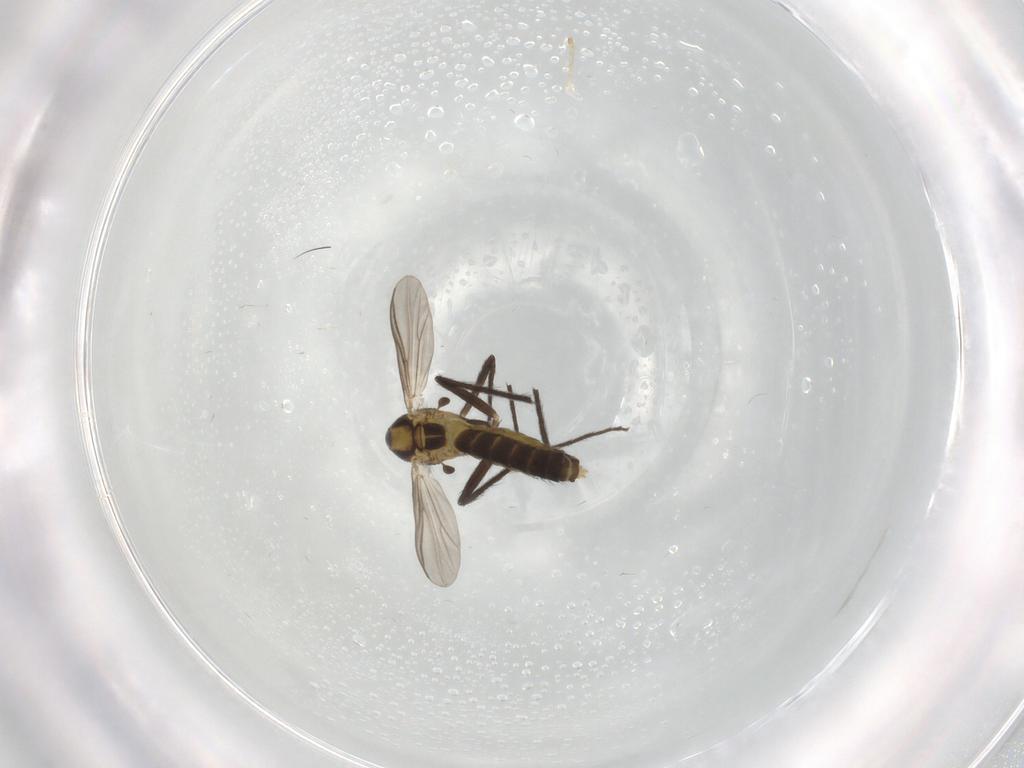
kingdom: Animalia
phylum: Arthropoda
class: Insecta
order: Diptera
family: Chironomidae
